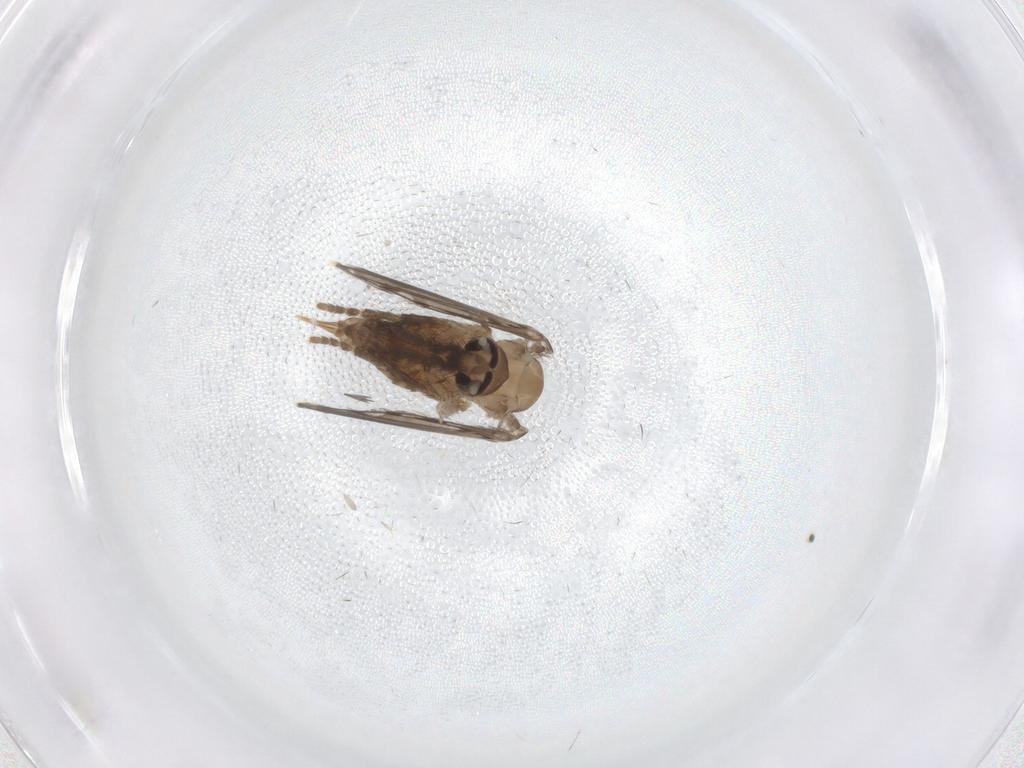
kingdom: Animalia
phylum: Arthropoda
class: Insecta
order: Diptera
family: Psychodidae
